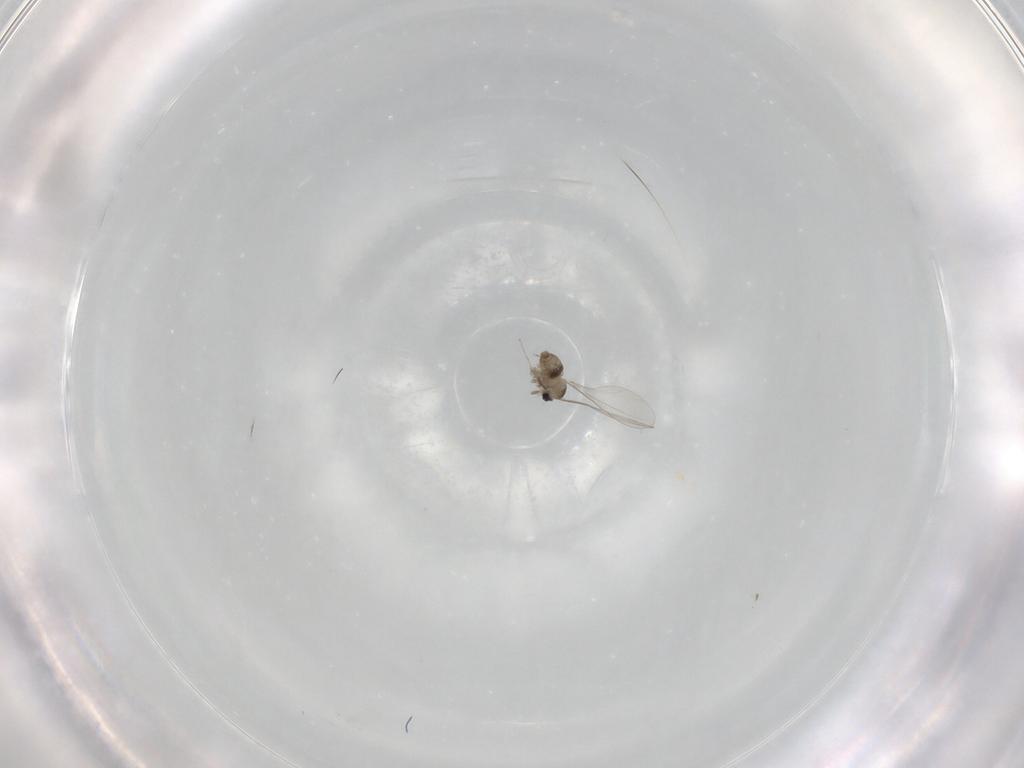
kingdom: Animalia
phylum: Arthropoda
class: Insecta
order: Diptera
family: Cecidomyiidae
